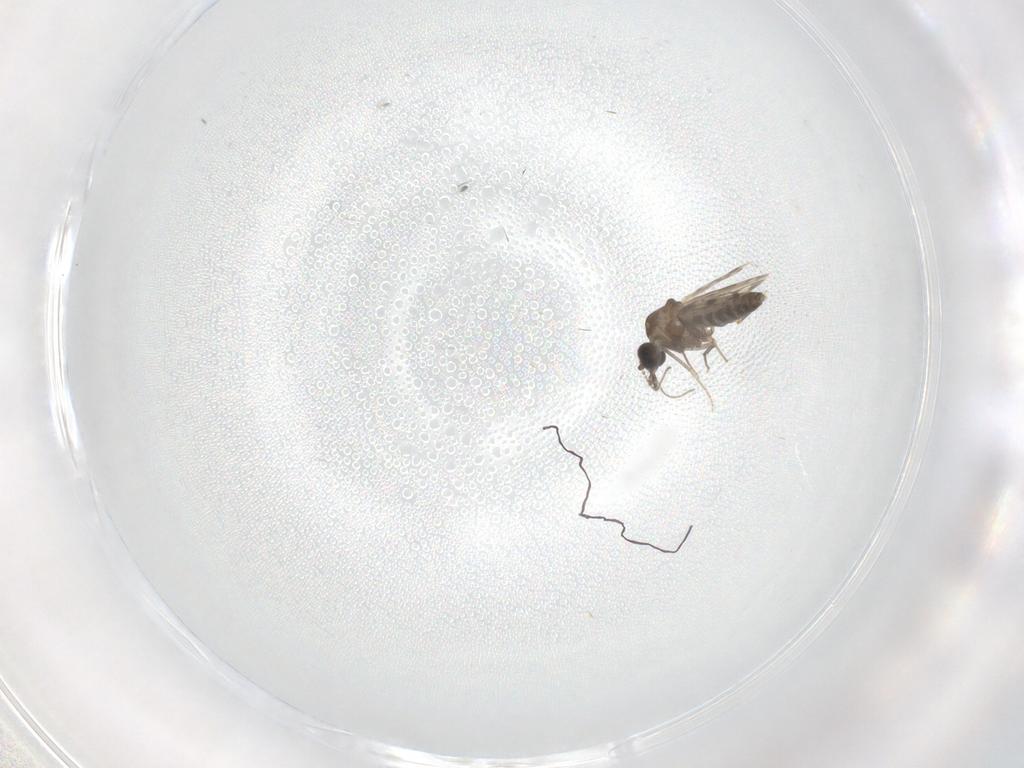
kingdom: Animalia
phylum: Arthropoda
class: Insecta
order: Diptera
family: Ceratopogonidae
